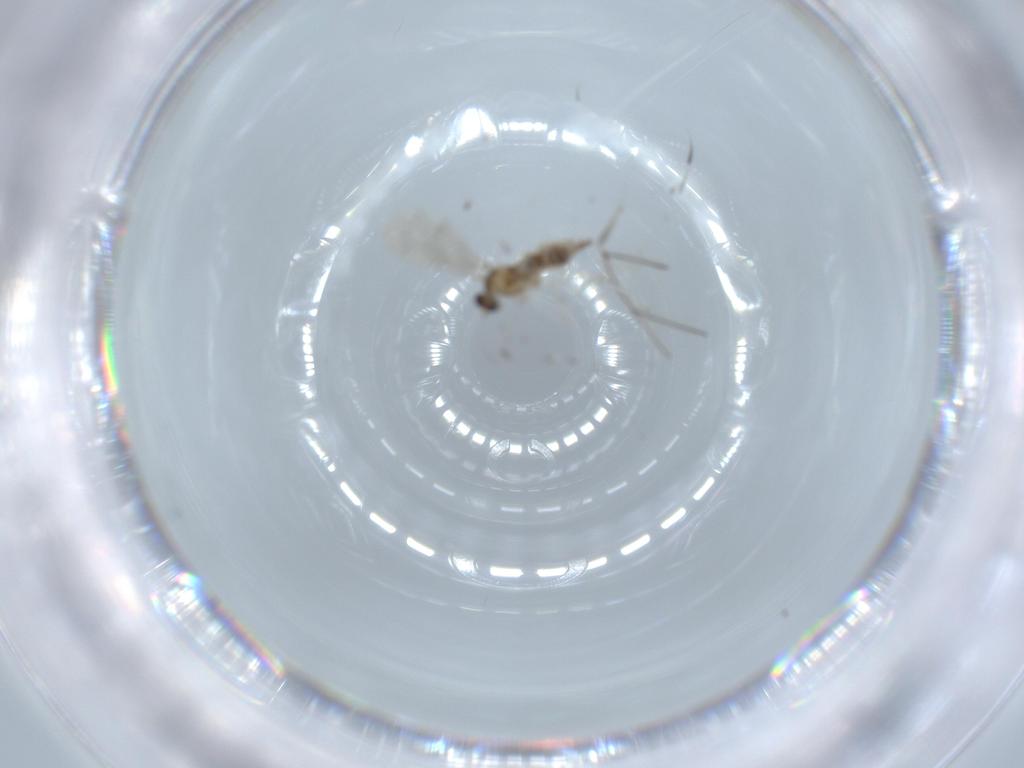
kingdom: Animalia
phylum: Arthropoda
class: Insecta
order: Diptera
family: Cecidomyiidae
